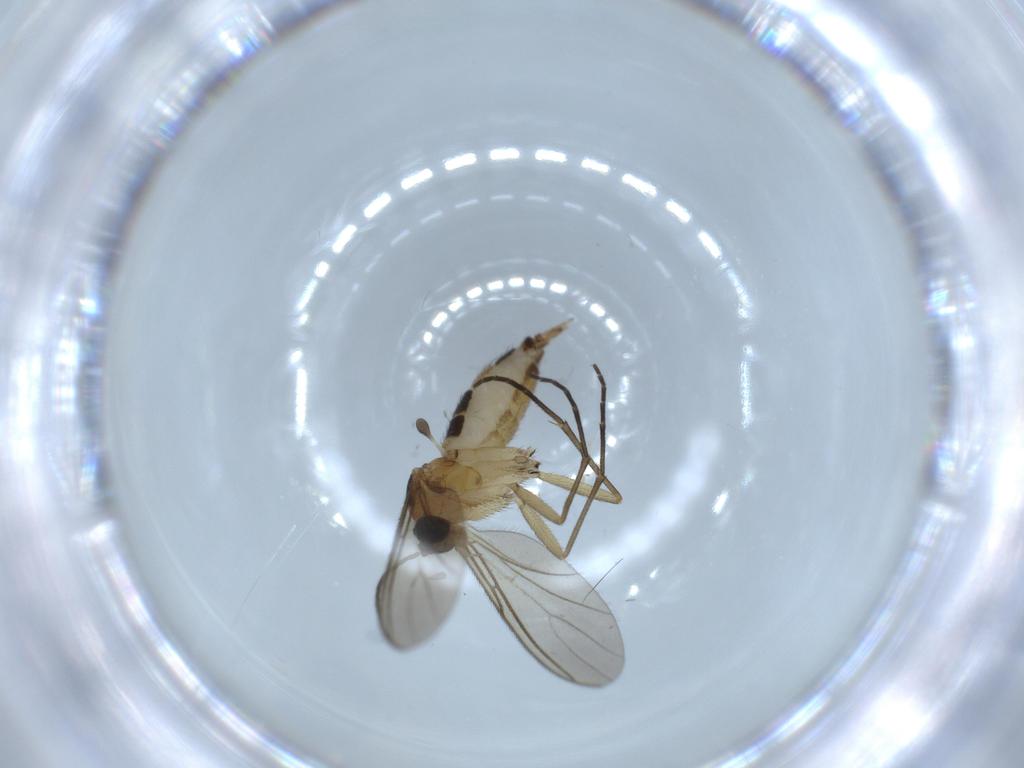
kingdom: Animalia
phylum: Arthropoda
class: Insecta
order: Diptera
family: Sciaridae
